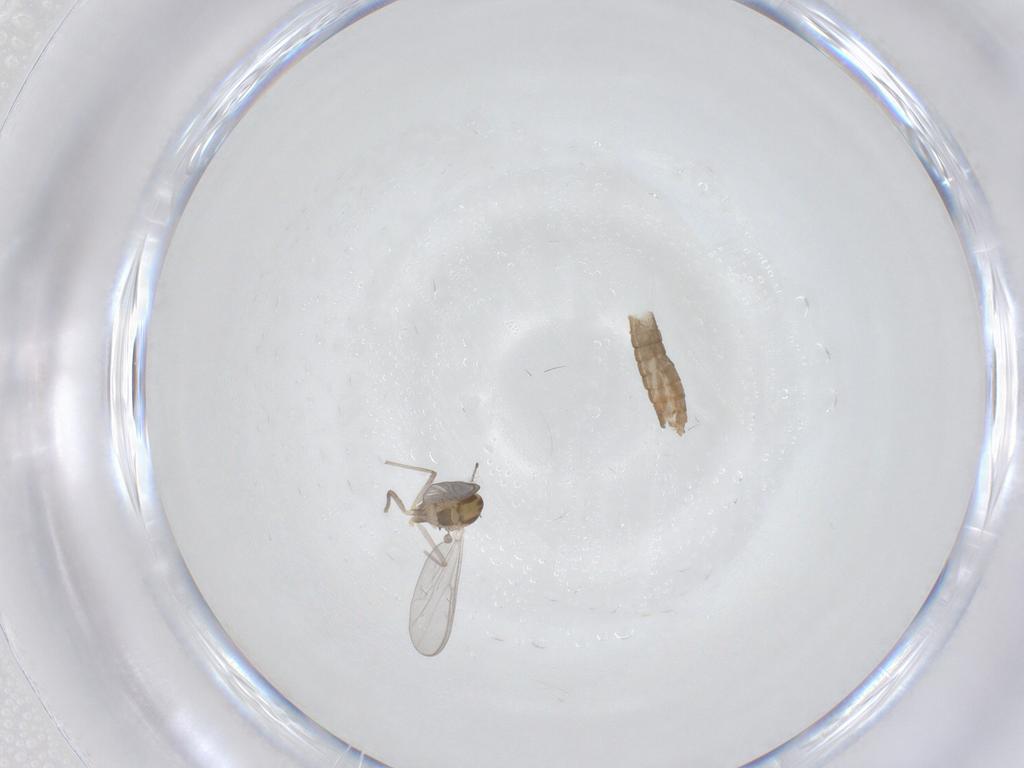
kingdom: Animalia
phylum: Arthropoda
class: Insecta
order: Diptera
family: Chironomidae
